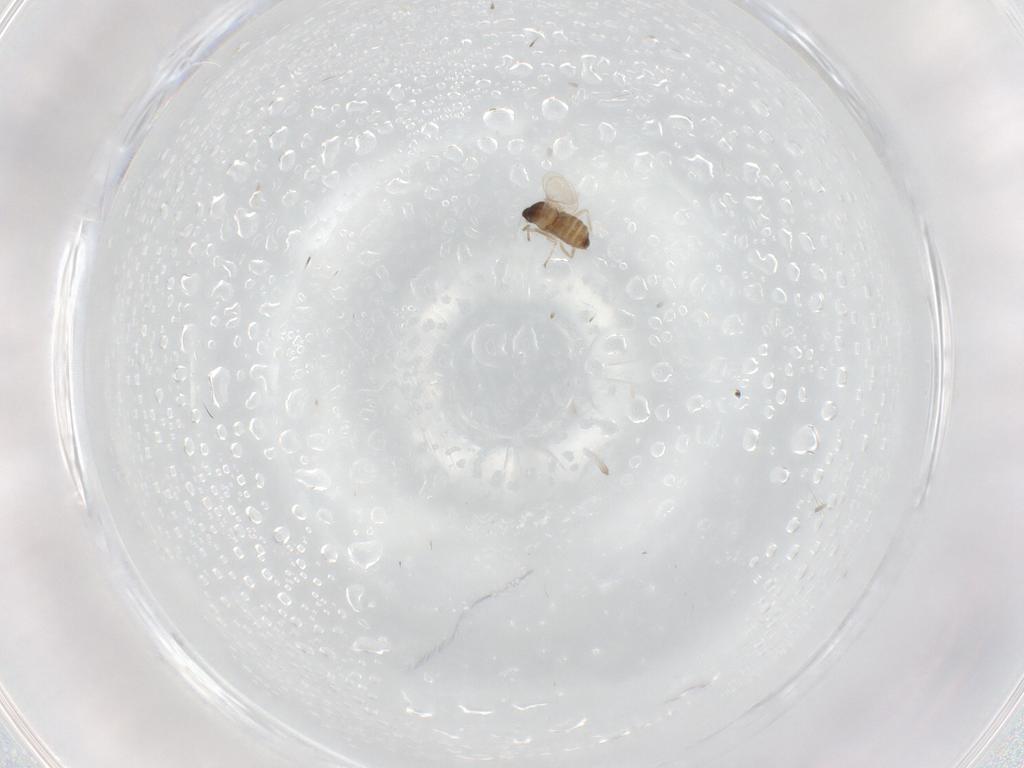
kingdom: Animalia
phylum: Arthropoda
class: Insecta
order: Diptera
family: Cecidomyiidae
